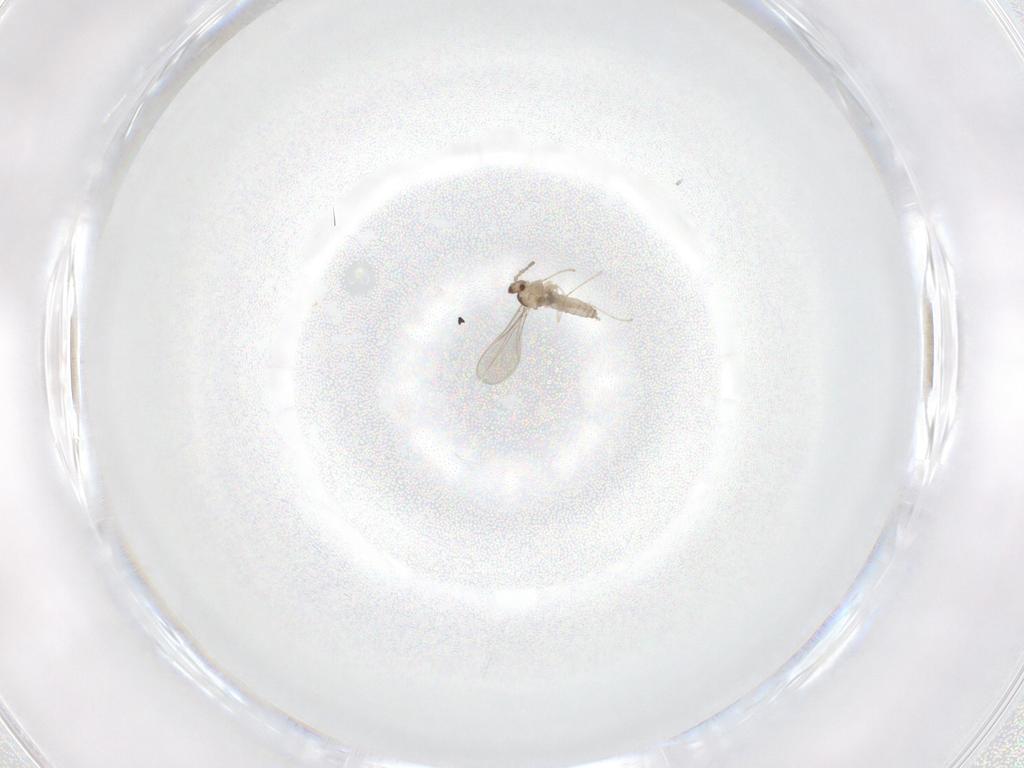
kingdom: Animalia
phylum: Arthropoda
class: Insecta
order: Diptera
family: Cecidomyiidae
